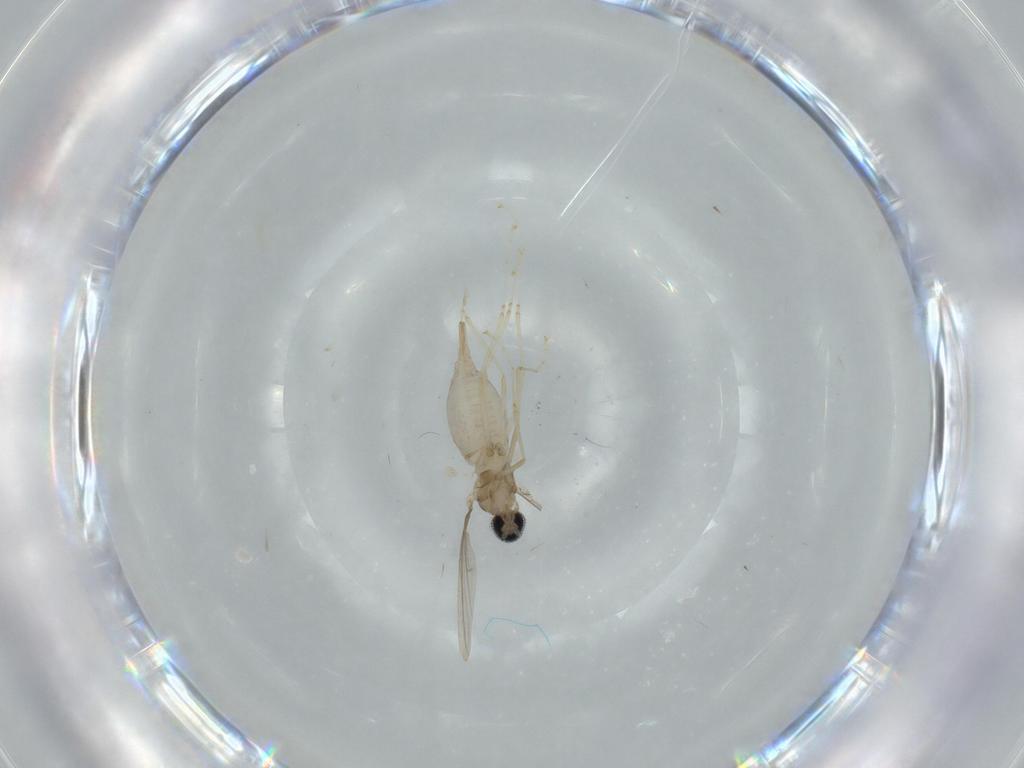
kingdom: Animalia
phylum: Arthropoda
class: Insecta
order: Diptera
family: Cecidomyiidae
